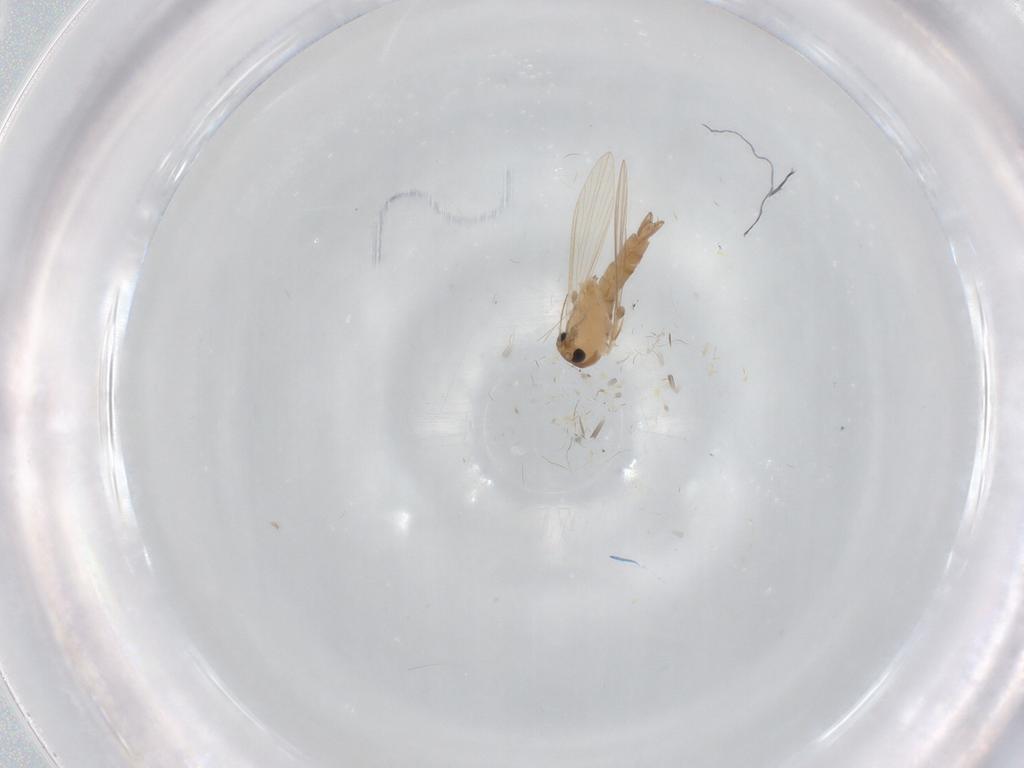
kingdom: Animalia
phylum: Arthropoda
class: Insecta
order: Diptera
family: Psychodidae
